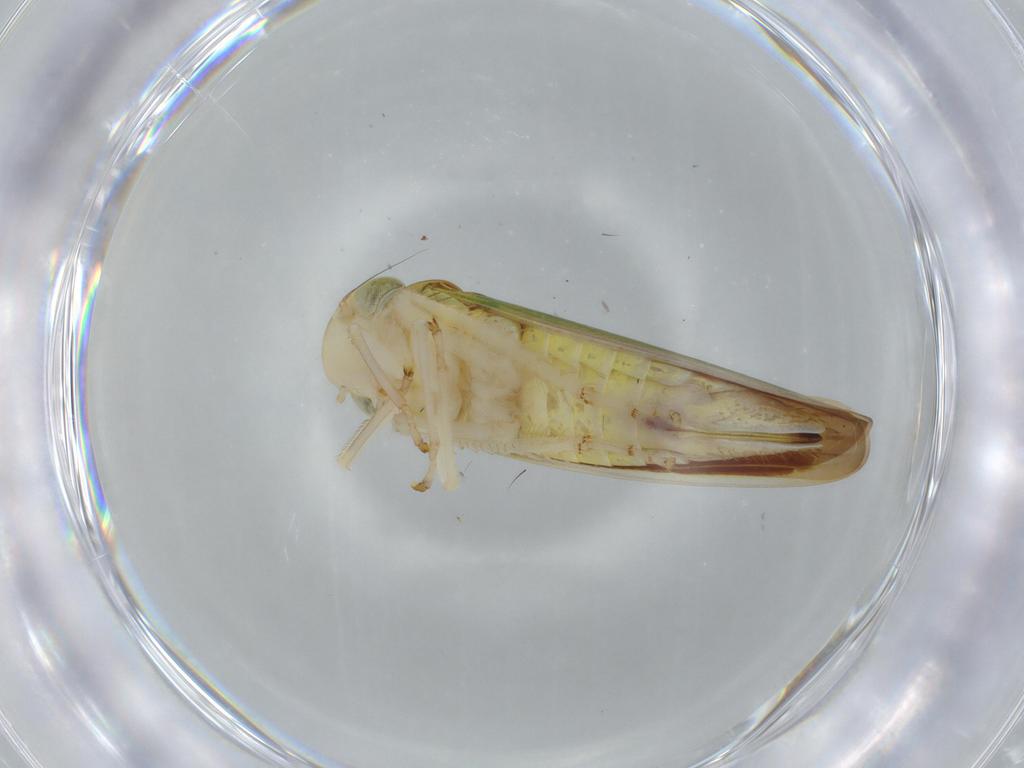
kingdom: Animalia
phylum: Arthropoda
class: Insecta
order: Hemiptera
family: Cicadellidae
